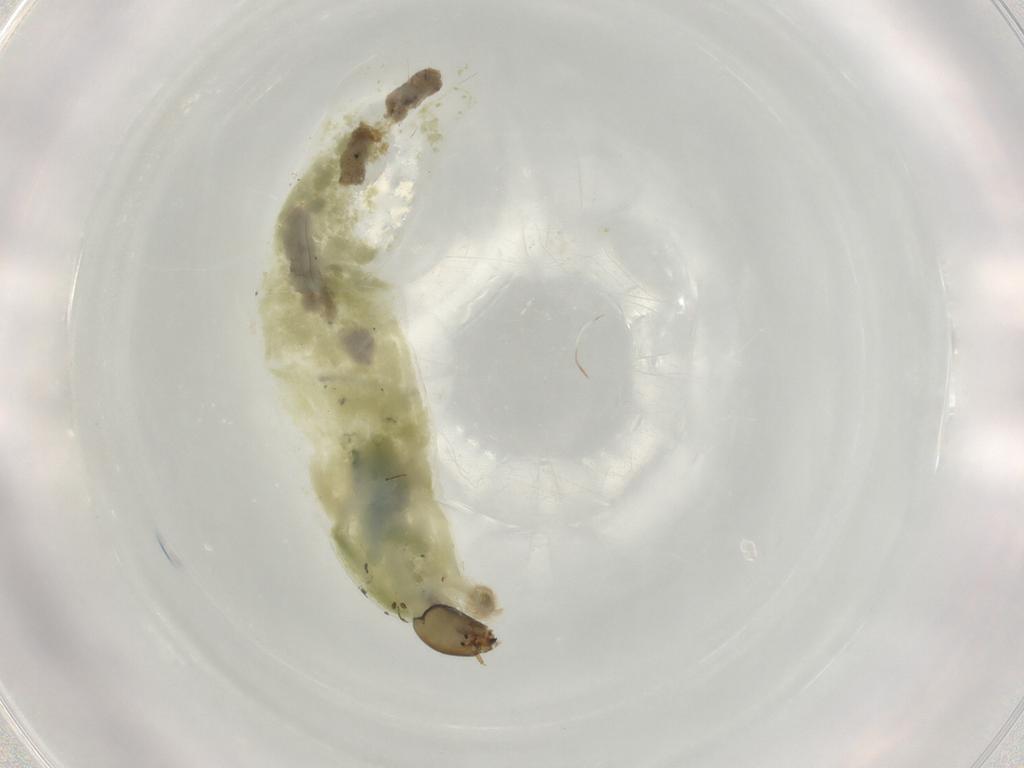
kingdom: Animalia
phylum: Arthropoda
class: Insecta
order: Diptera
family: Chironomidae
